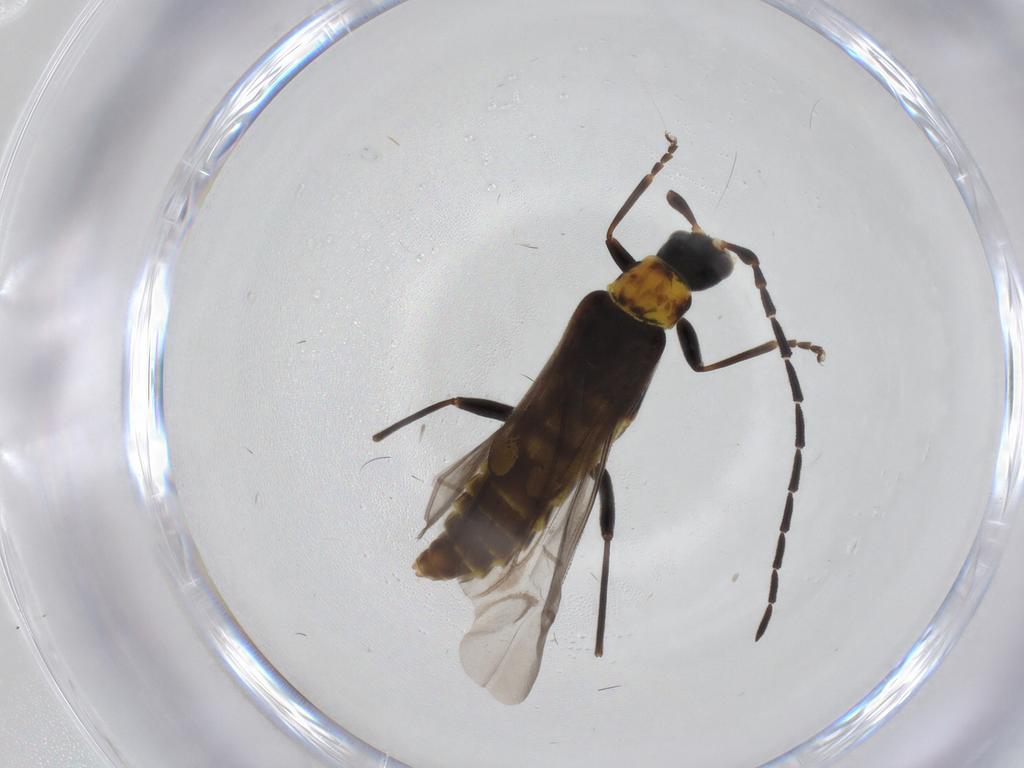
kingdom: Animalia
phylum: Arthropoda
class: Insecta
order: Coleoptera
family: Cantharidae
